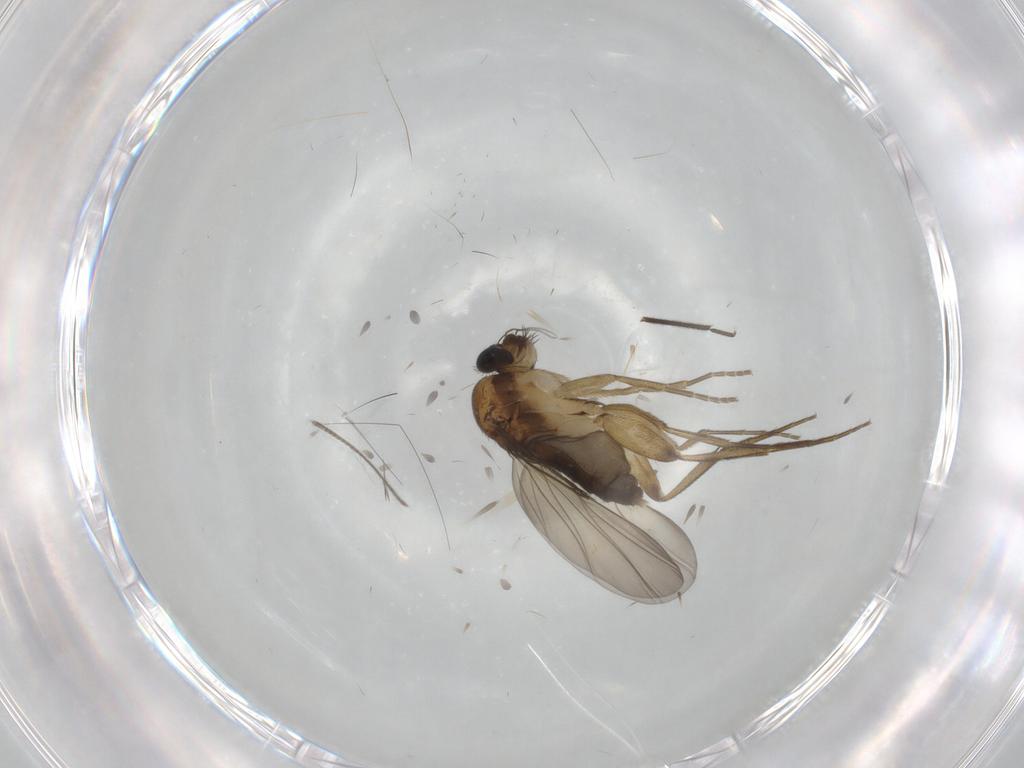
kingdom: Animalia
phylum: Arthropoda
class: Insecta
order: Diptera
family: Phoridae
